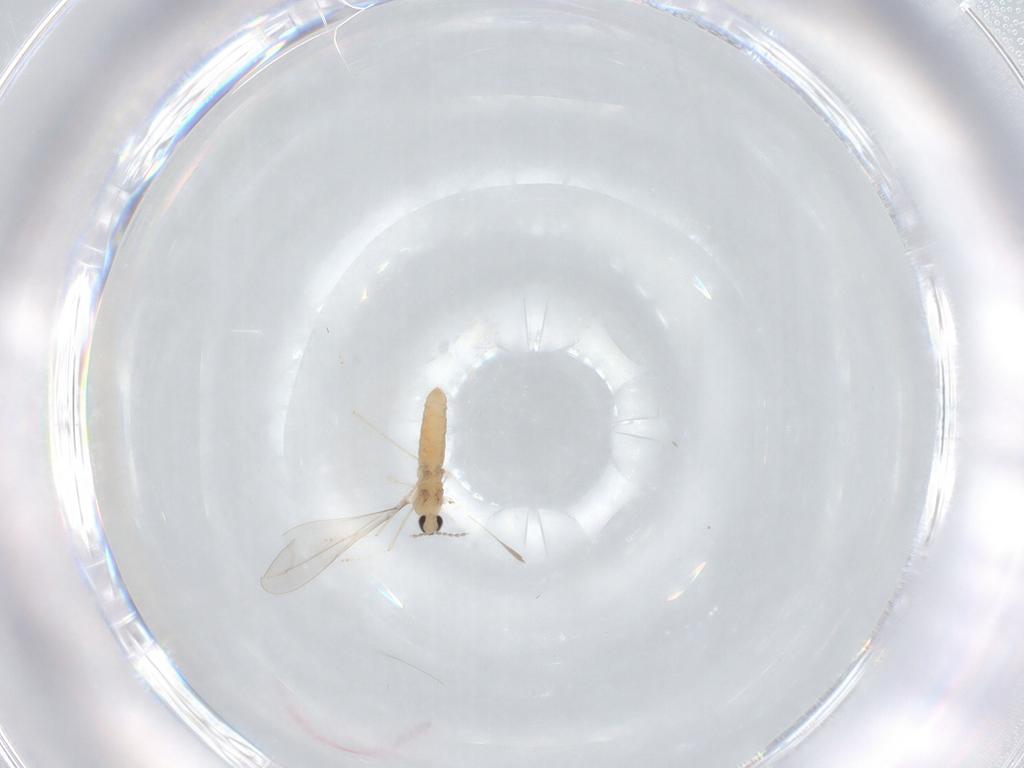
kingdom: Animalia
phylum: Arthropoda
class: Insecta
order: Diptera
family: Cecidomyiidae
